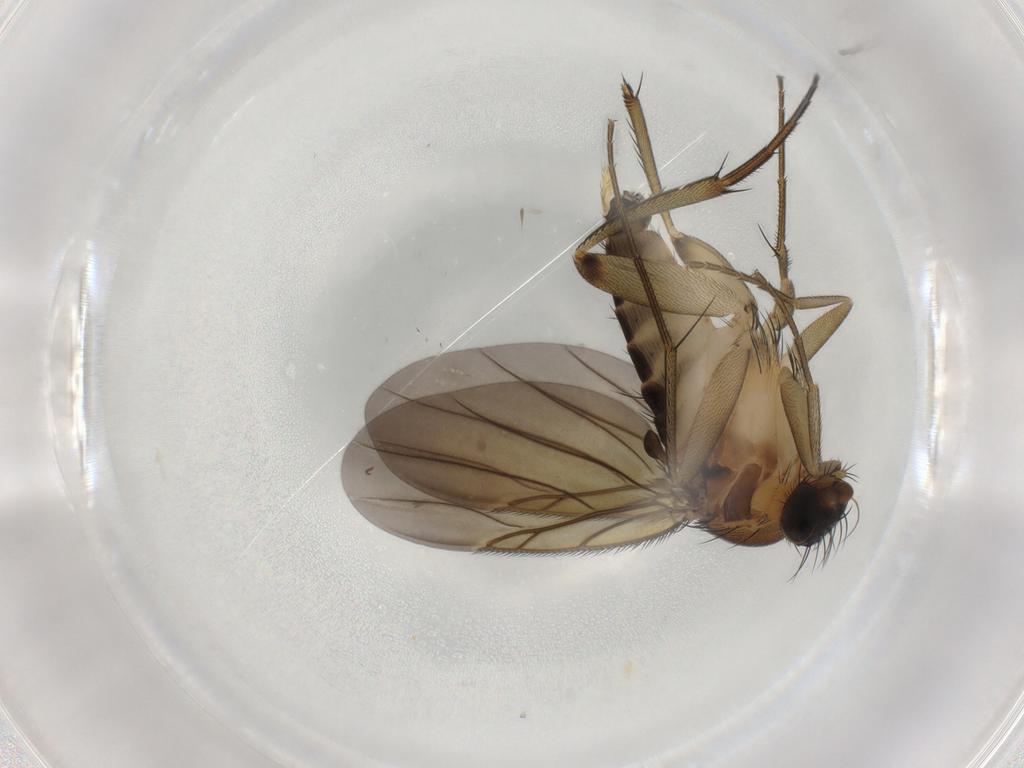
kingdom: Animalia
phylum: Arthropoda
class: Insecta
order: Diptera
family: Phoridae
